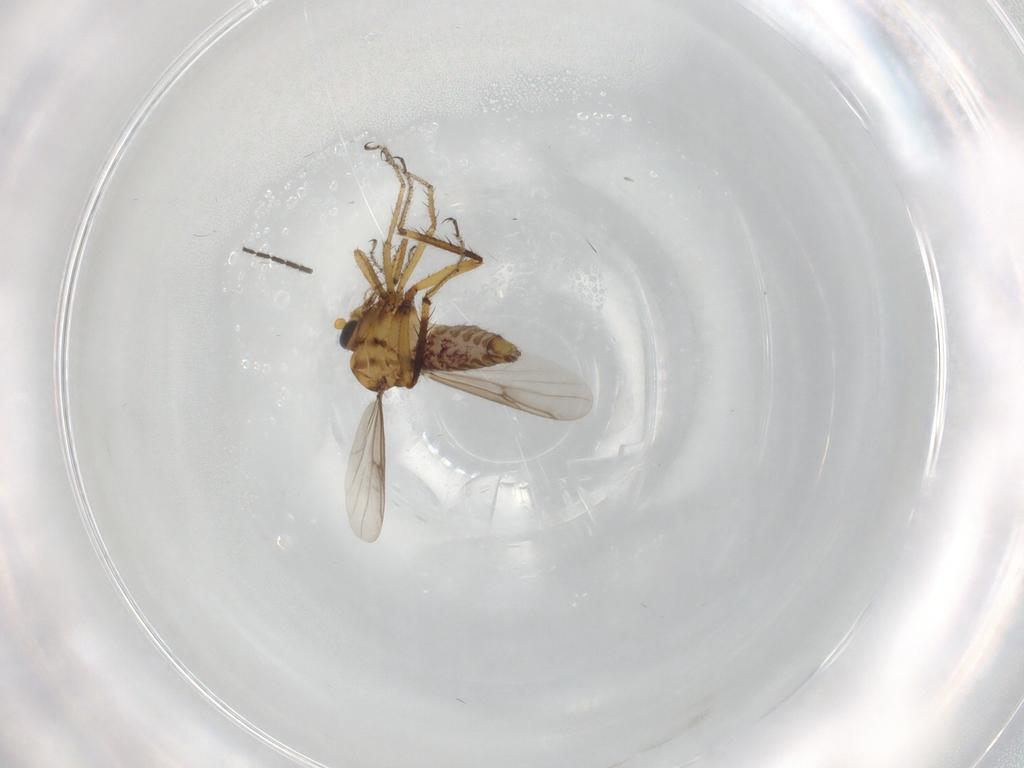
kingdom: Animalia
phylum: Arthropoda
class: Insecta
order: Diptera
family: Ceratopogonidae
